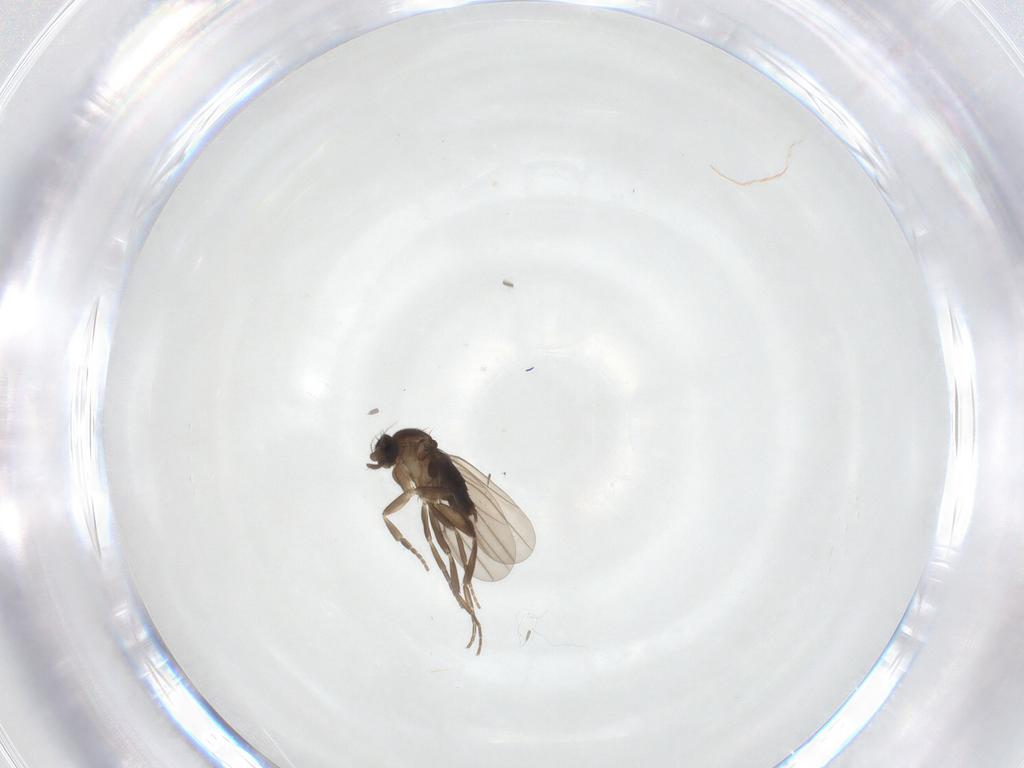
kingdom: Animalia
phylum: Arthropoda
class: Insecta
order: Diptera
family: Phoridae
